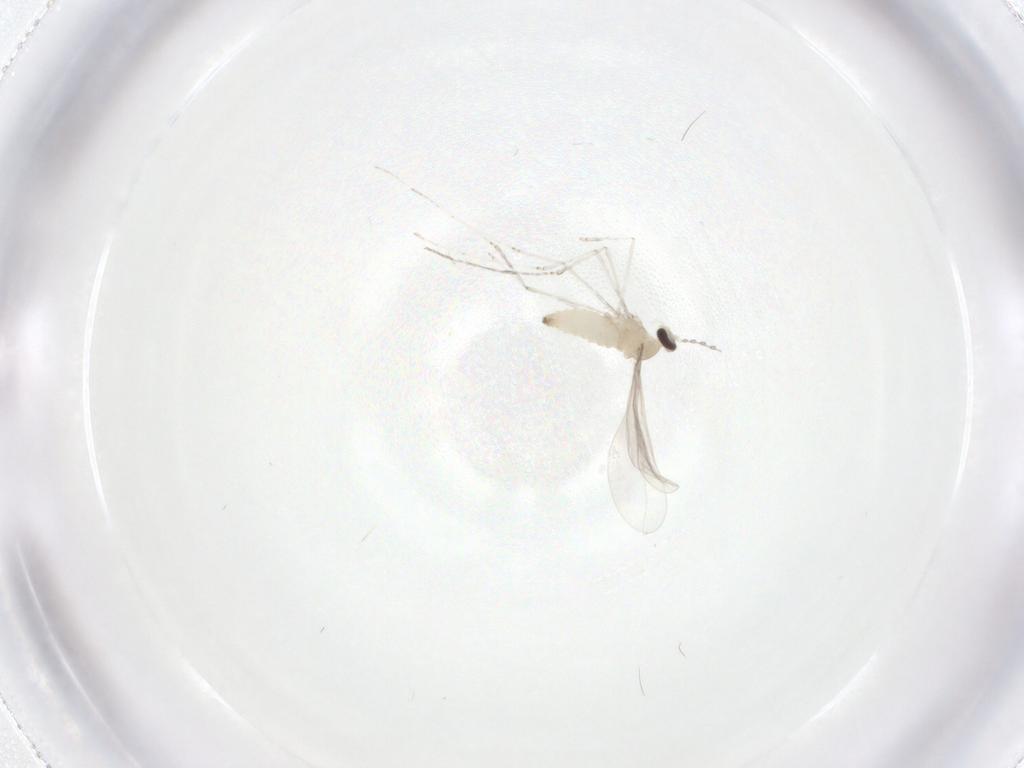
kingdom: Animalia
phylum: Arthropoda
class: Insecta
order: Diptera
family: Cecidomyiidae
